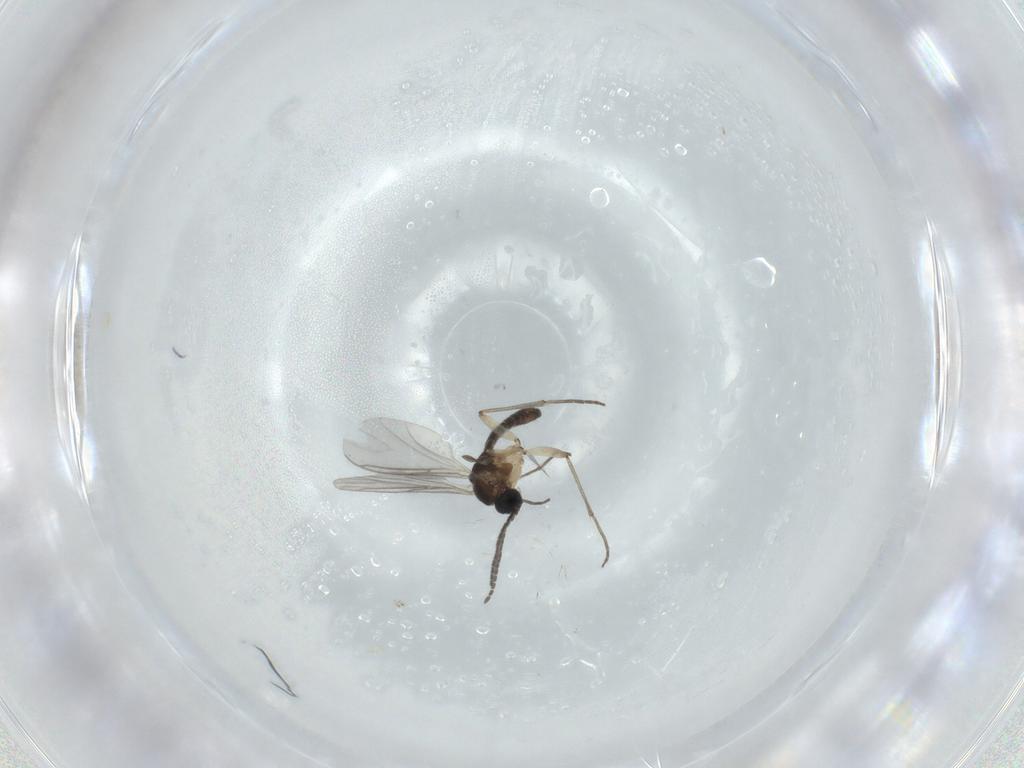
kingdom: Animalia
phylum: Arthropoda
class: Insecta
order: Diptera
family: Sciaridae
